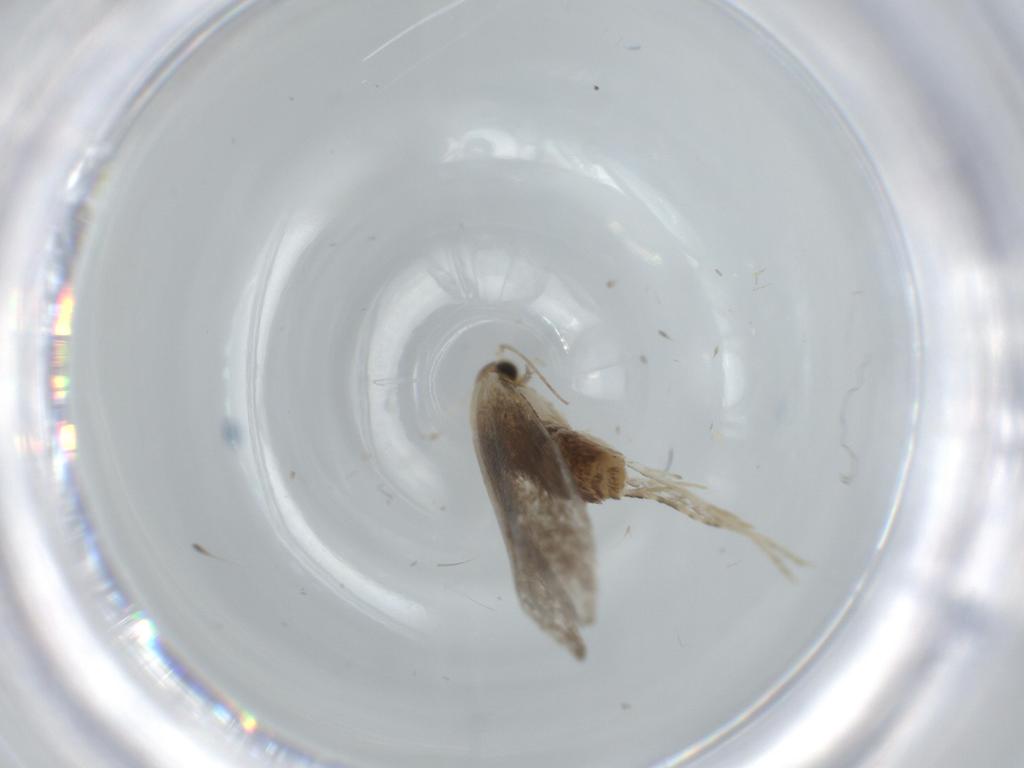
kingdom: Animalia
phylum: Arthropoda
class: Insecta
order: Lepidoptera
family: Tineidae
